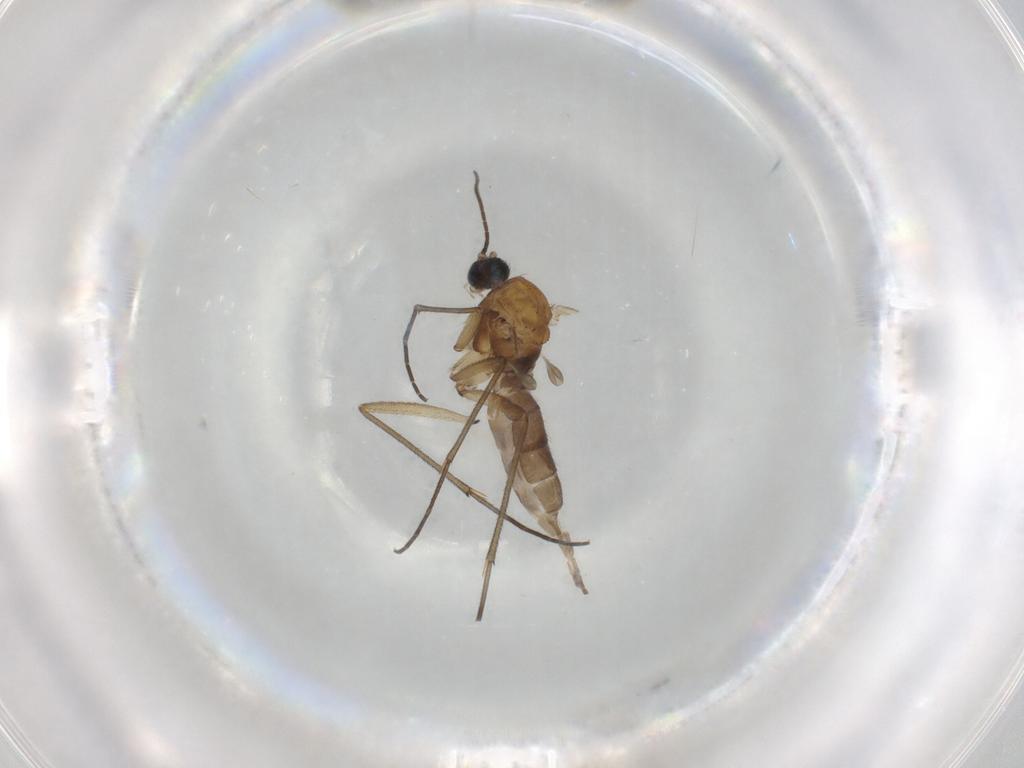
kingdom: Animalia
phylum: Arthropoda
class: Insecta
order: Diptera
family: Sciaridae
